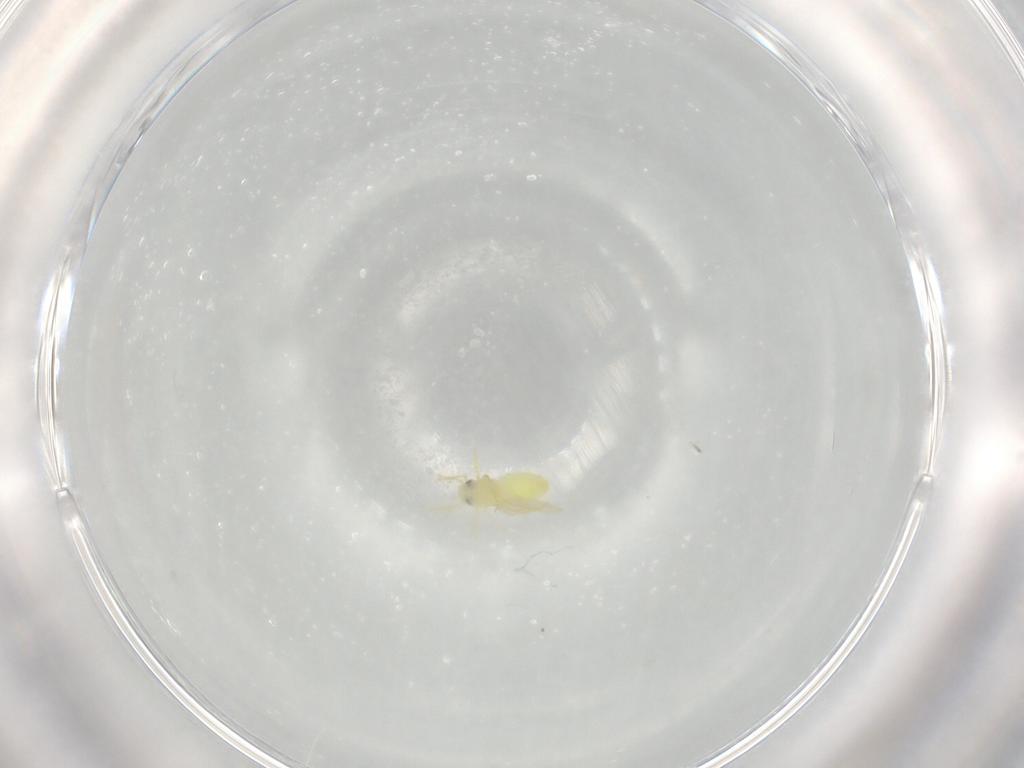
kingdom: Animalia
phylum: Arthropoda
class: Insecta
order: Hemiptera
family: Aleyrodidae
